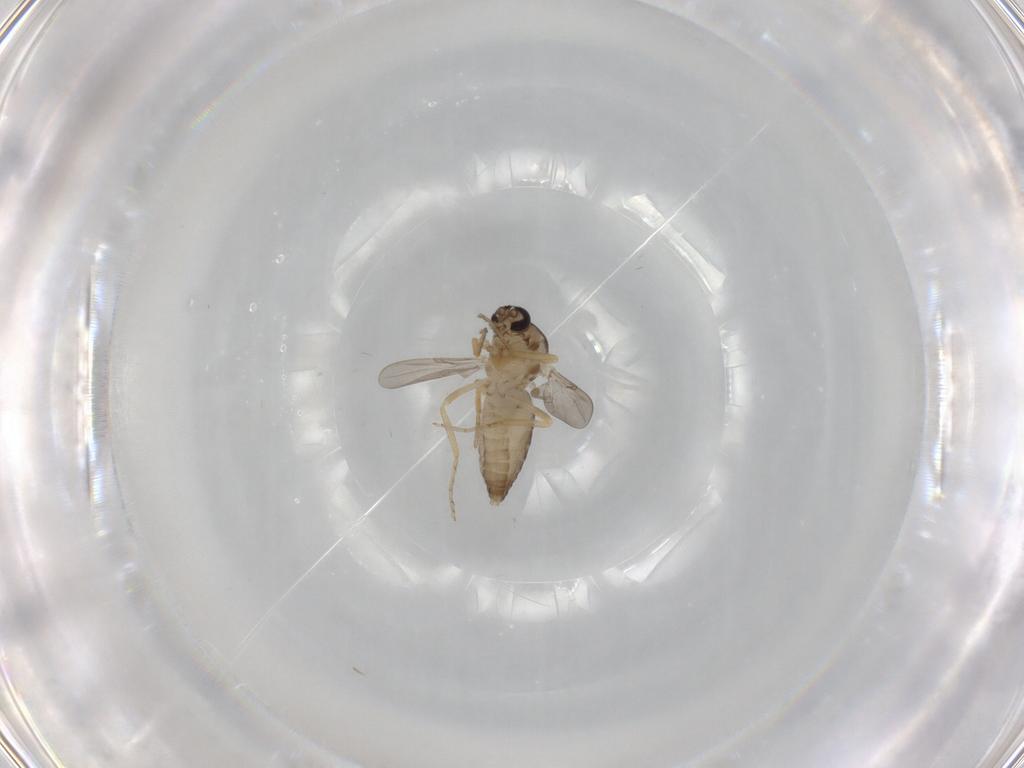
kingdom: Animalia
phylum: Arthropoda
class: Insecta
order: Diptera
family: Ceratopogonidae
